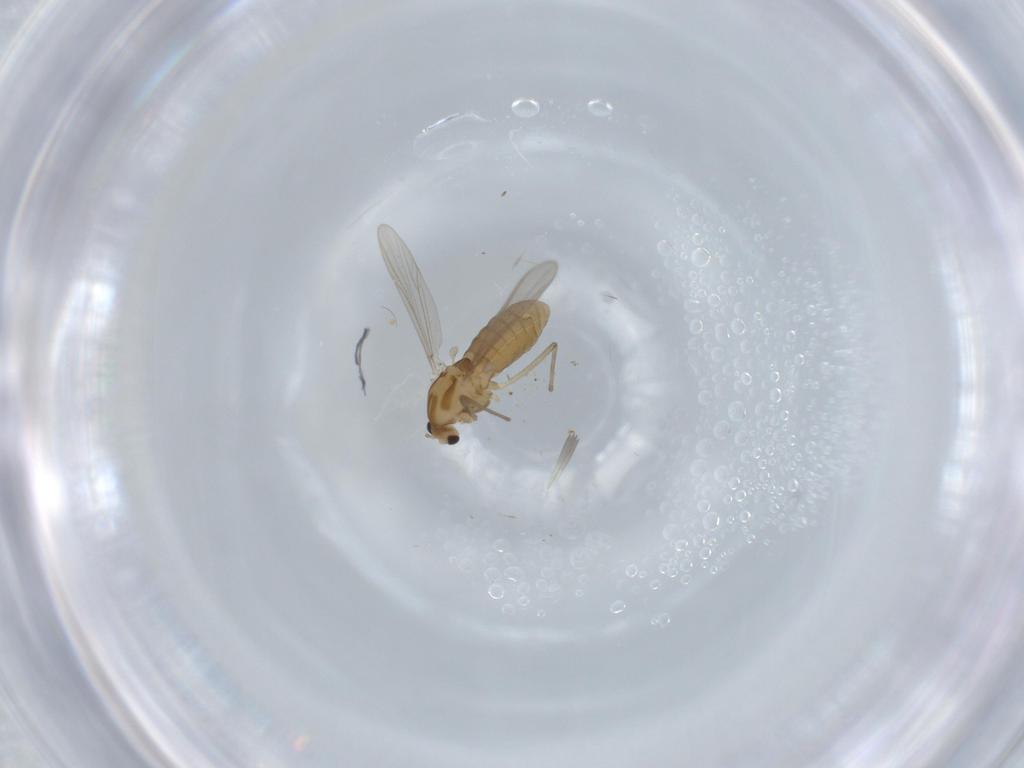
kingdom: Animalia
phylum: Arthropoda
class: Insecta
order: Diptera
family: Chironomidae
